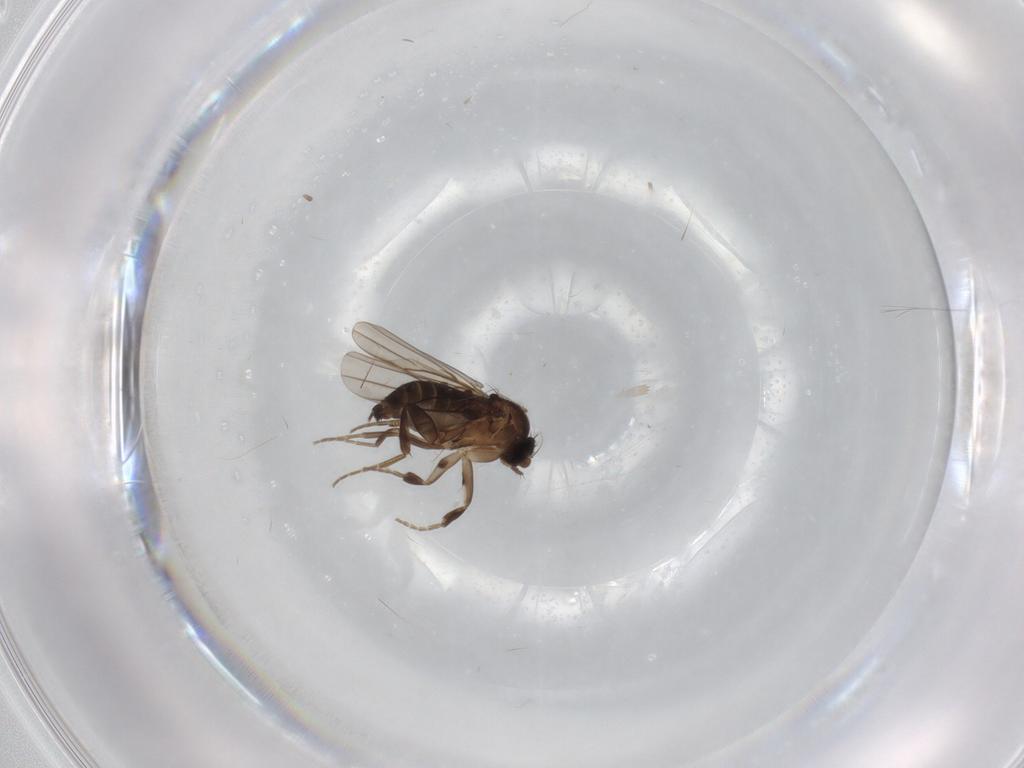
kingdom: Animalia
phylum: Arthropoda
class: Insecta
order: Diptera
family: Phoridae
